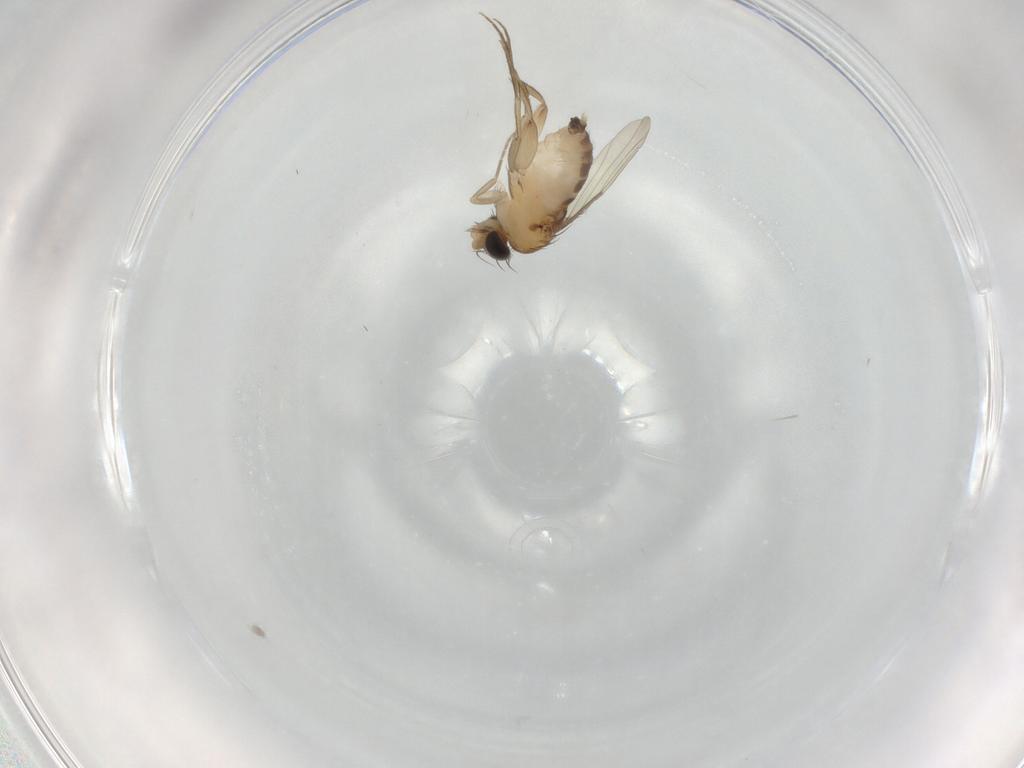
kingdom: Animalia
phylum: Arthropoda
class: Insecta
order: Diptera
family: Phoridae
